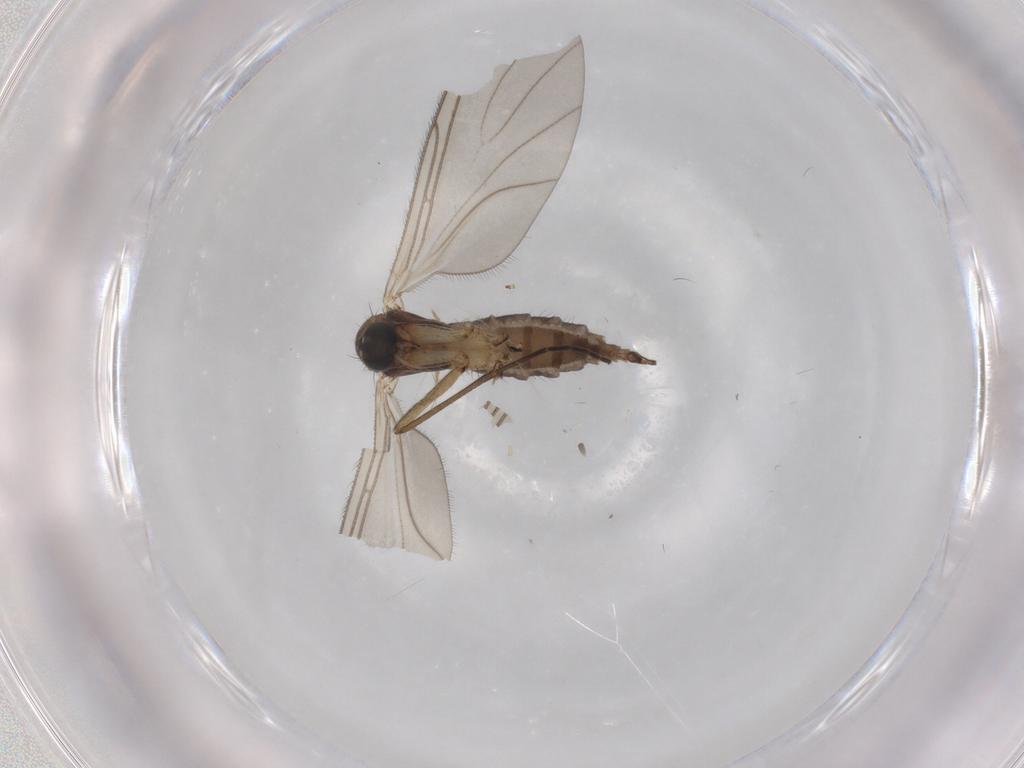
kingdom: Animalia
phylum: Arthropoda
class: Insecta
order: Diptera
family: Sciaridae
